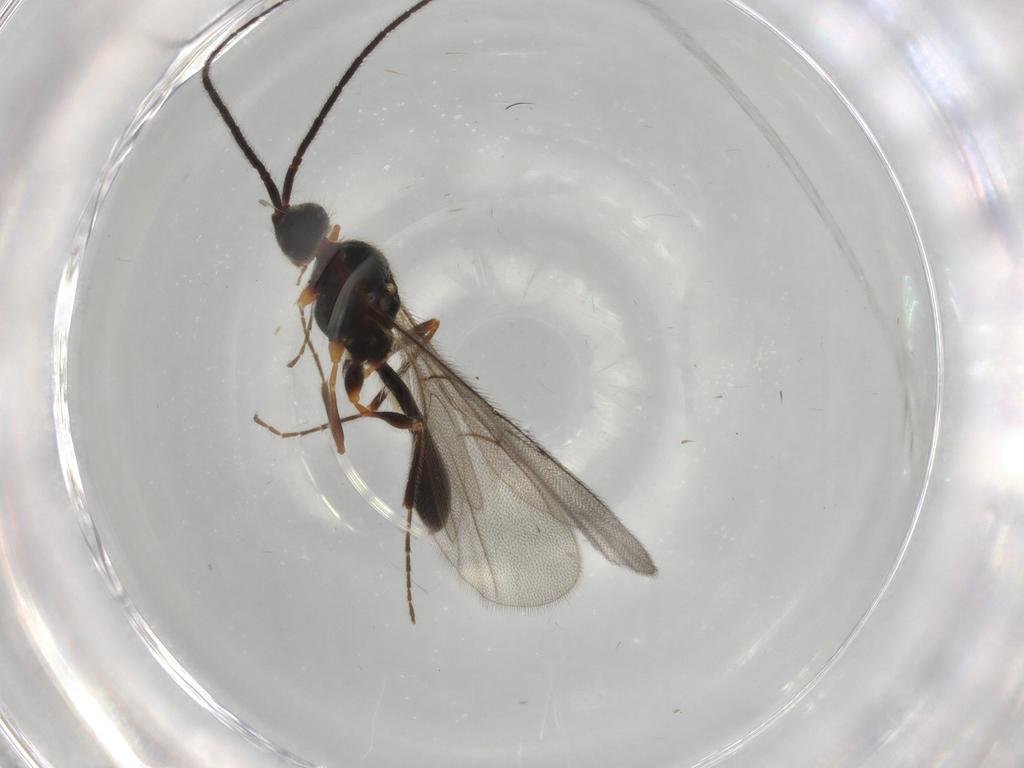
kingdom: Animalia
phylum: Arthropoda
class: Insecta
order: Hymenoptera
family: Diapriidae
